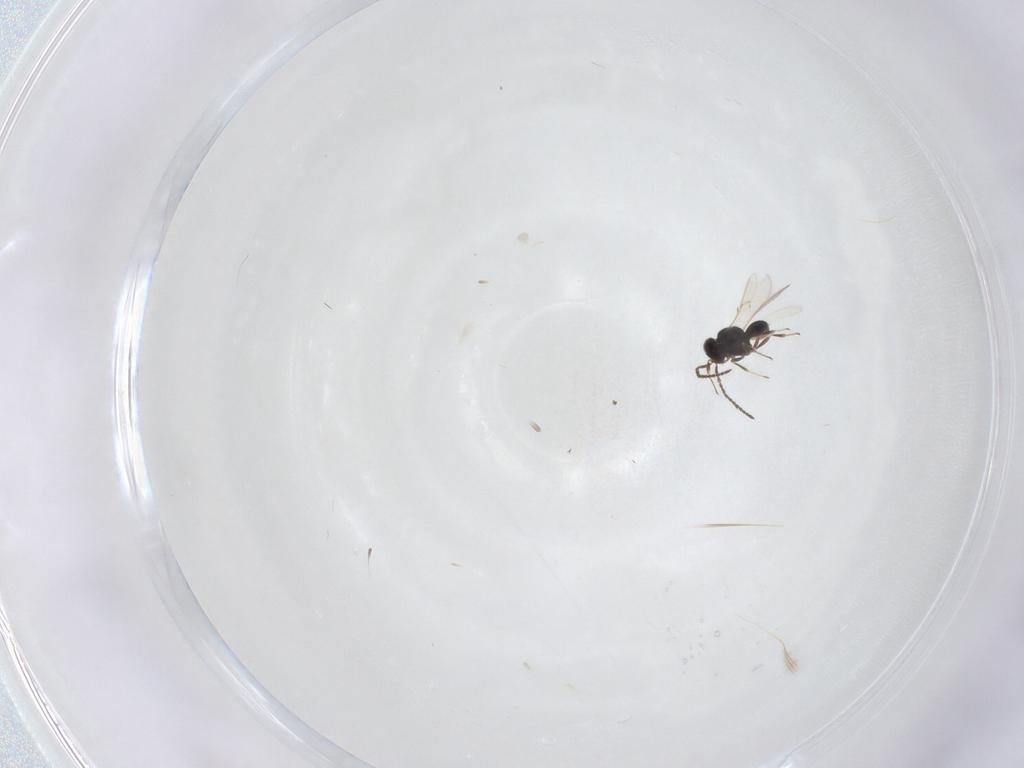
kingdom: Animalia
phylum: Arthropoda
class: Insecta
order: Hymenoptera
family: Scelionidae
